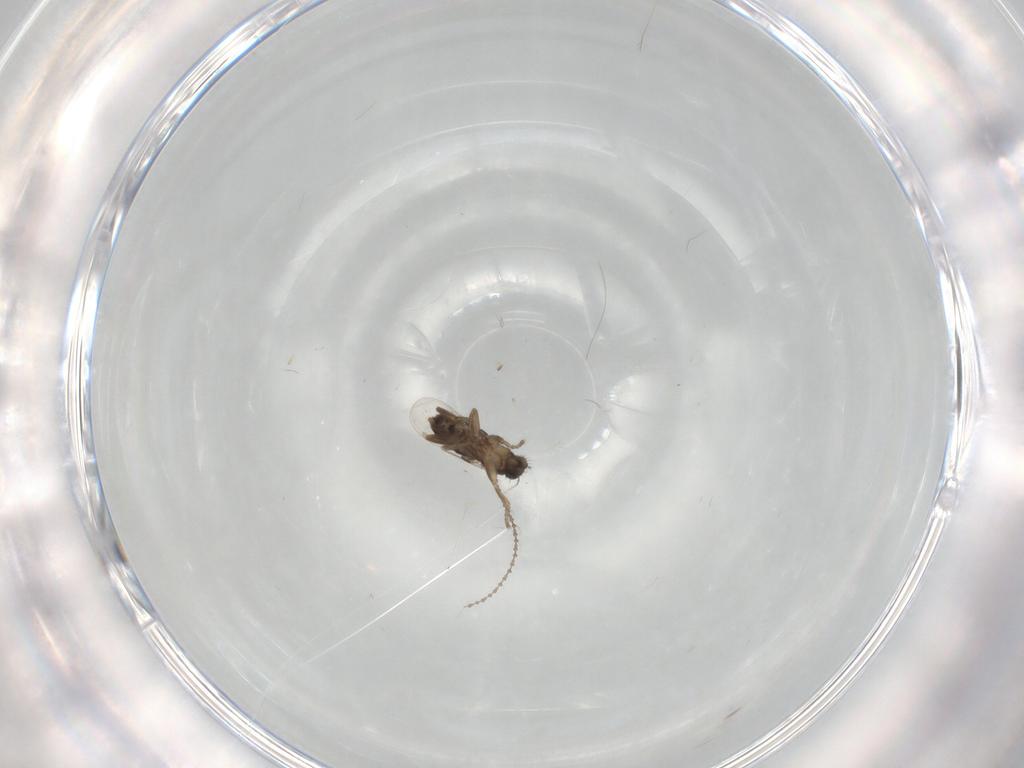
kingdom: Animalia
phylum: Arthropoda
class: Insecta
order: Diptera
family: Phoridae
